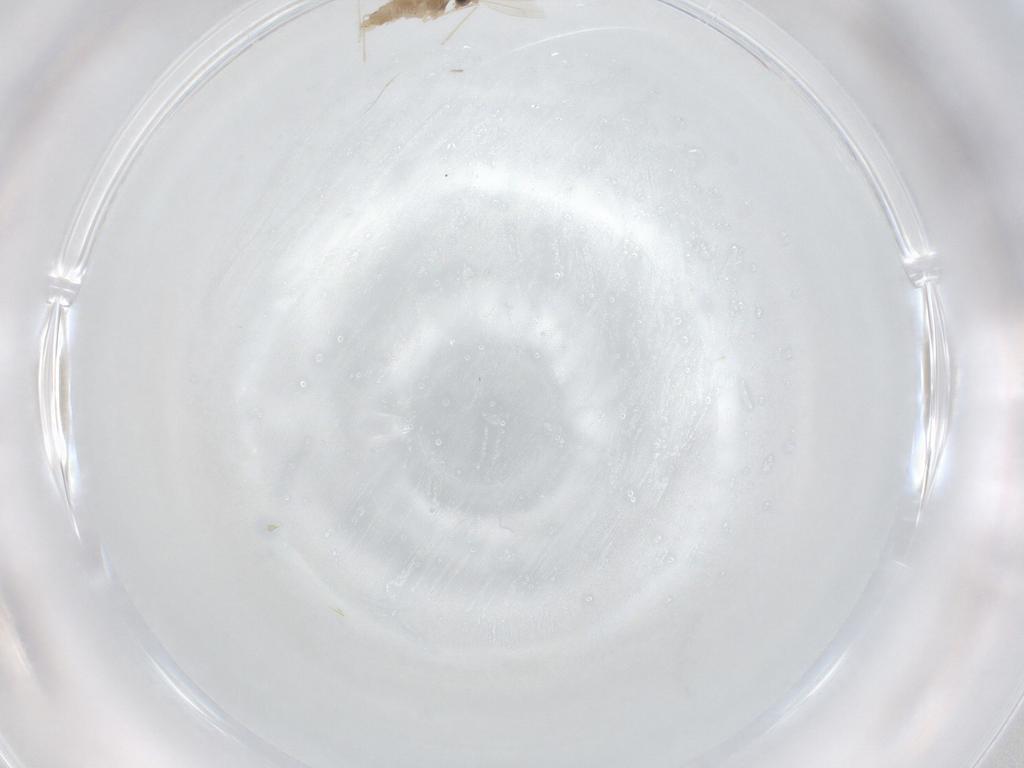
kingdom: Animalia
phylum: Arthropoda
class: Insecta
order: Diptera
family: Cecidomyiidae
